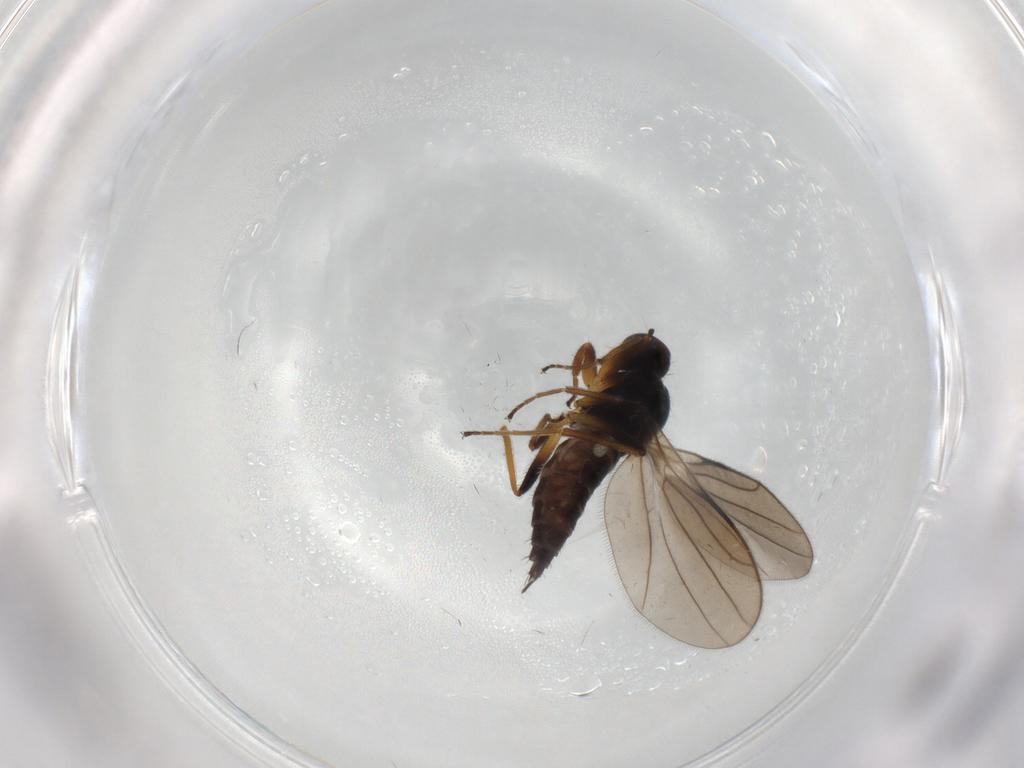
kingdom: Animalia
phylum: Arthropoda
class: Insecta
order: Diptera
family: Hybotidae
